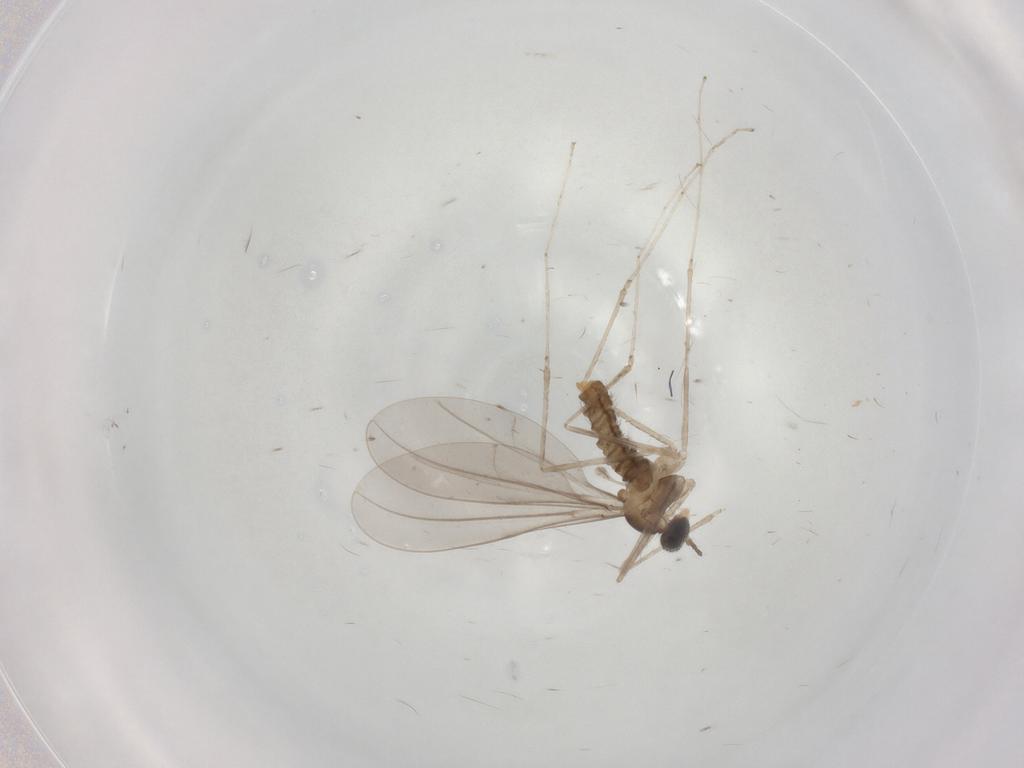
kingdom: Animalia
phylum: Arthropoda
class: Insecta
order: Diptera
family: Cecidomyiidae
